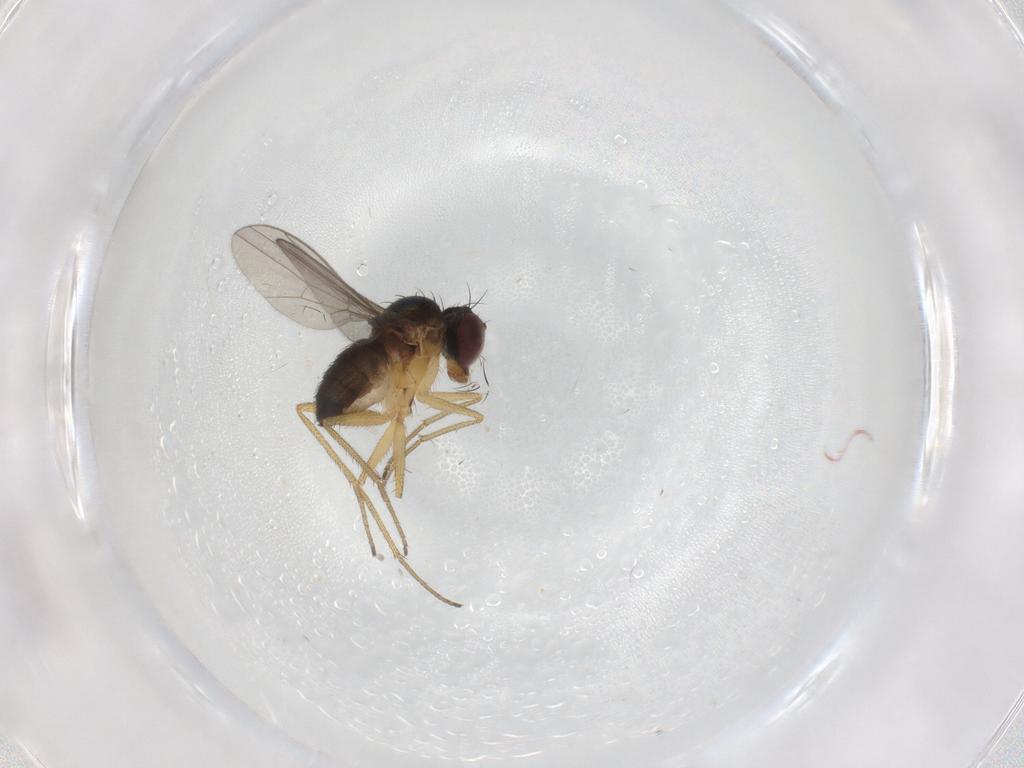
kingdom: Animalia
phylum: Arthropoda
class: Insecta
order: Diptera
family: Dolichopodidae
